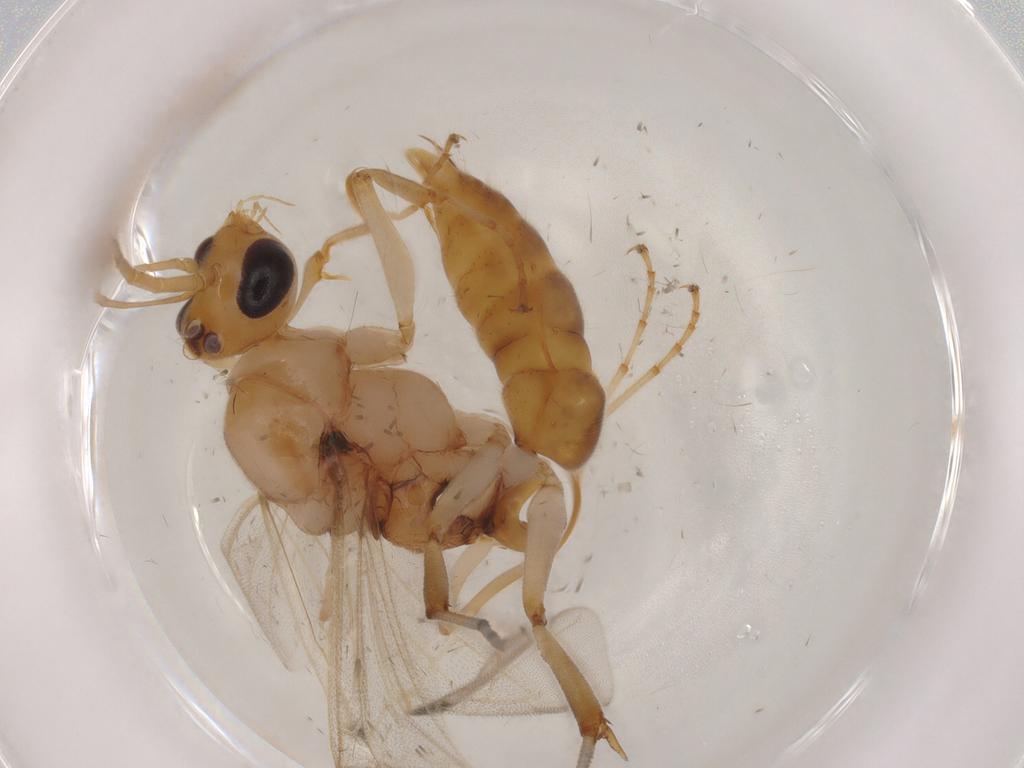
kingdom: Animalia
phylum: Arthropoda
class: Insecta
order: Hymenoptera
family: Formicidae
